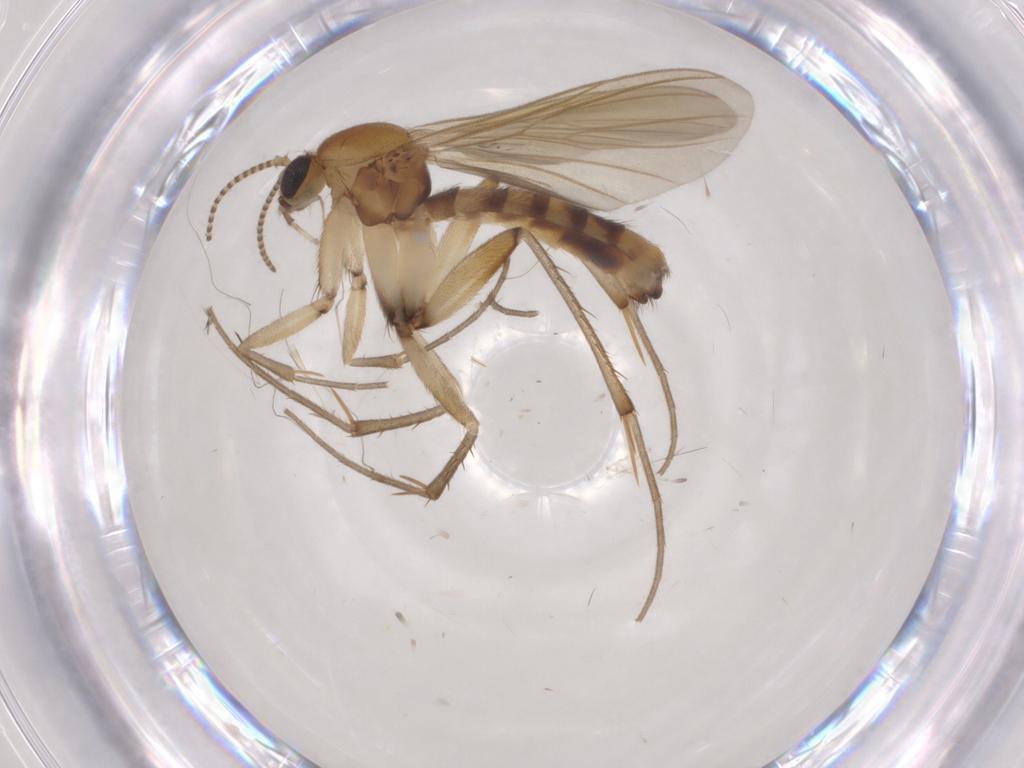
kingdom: Animalia
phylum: Arthropoda
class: Insecta
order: Diptera
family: Mycetophilidae
